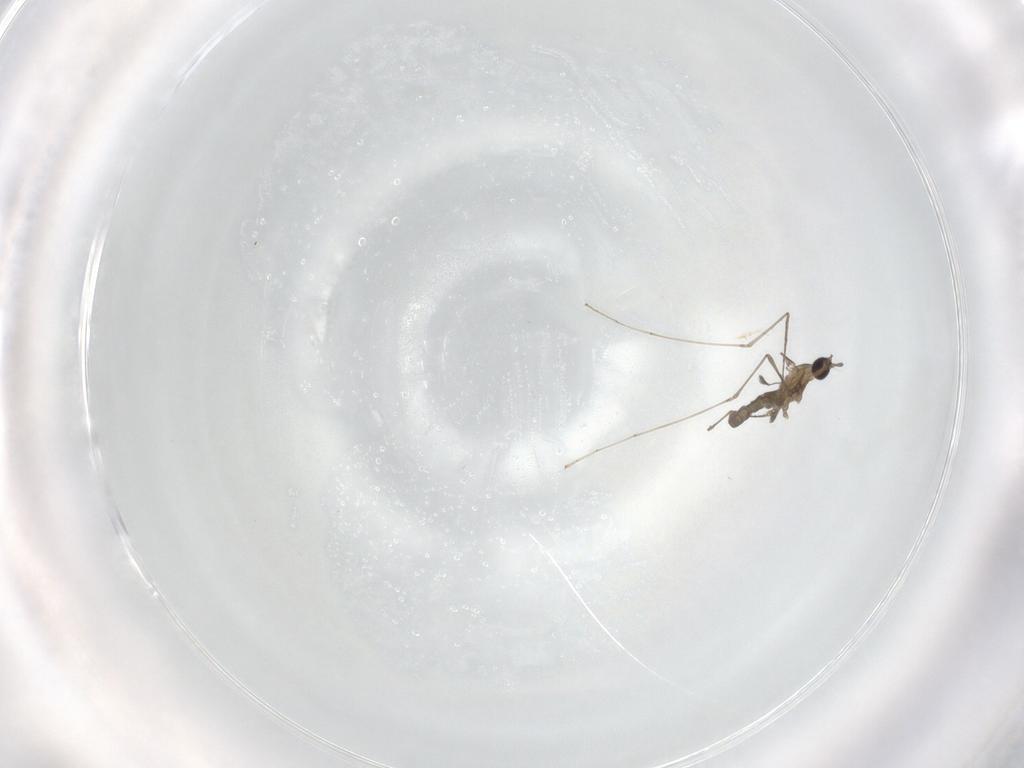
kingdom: Animalia
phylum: Arthropoda
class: Insecta
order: Diptera
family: Cecidomyiidae
